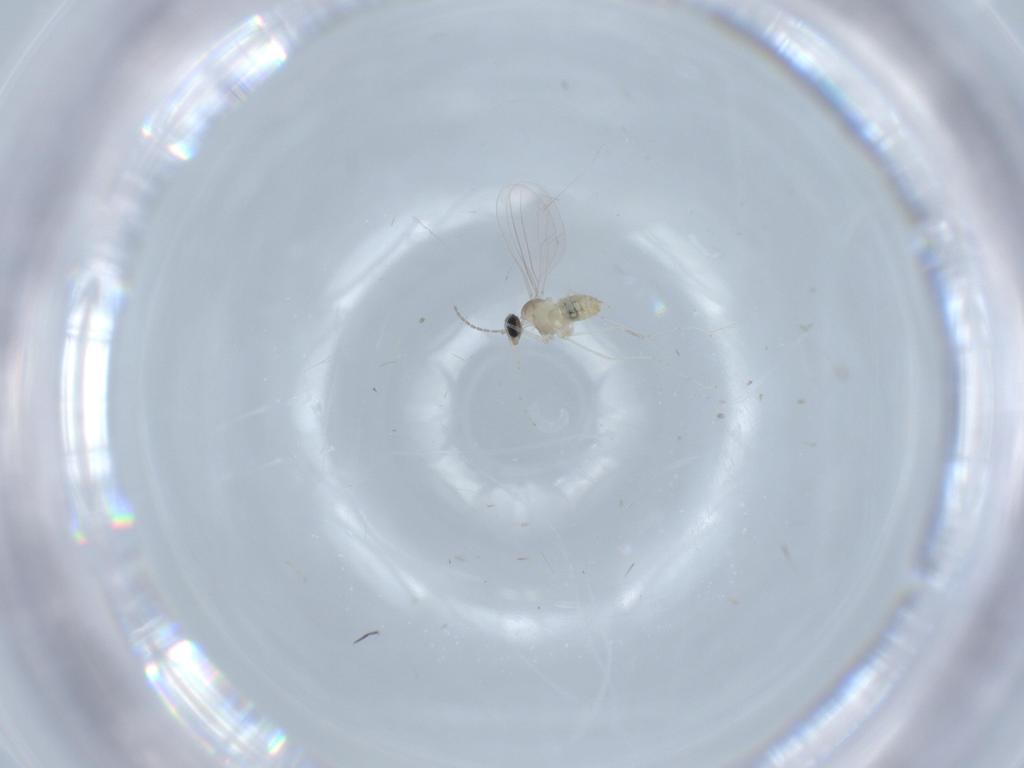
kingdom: Animalia
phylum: Arthropoda
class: Insecta
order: Diptera
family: Cecidomyiidae
